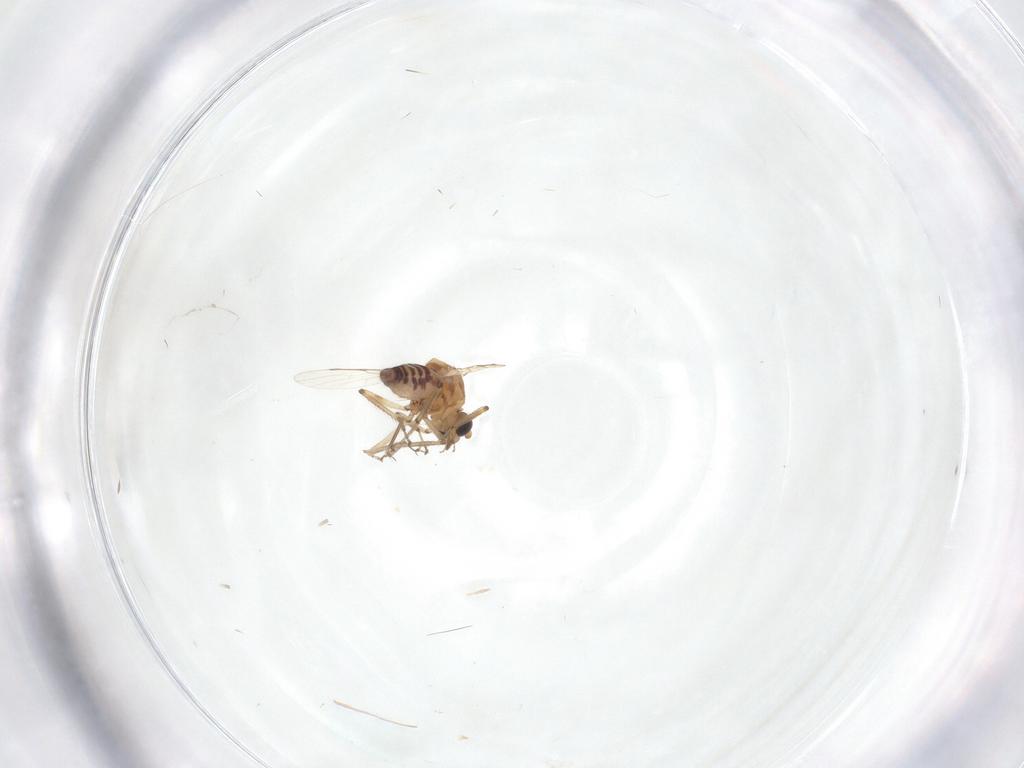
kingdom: Animalia
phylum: Arthropoda
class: Insecta
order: Diptera
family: Ceratopogonidae
